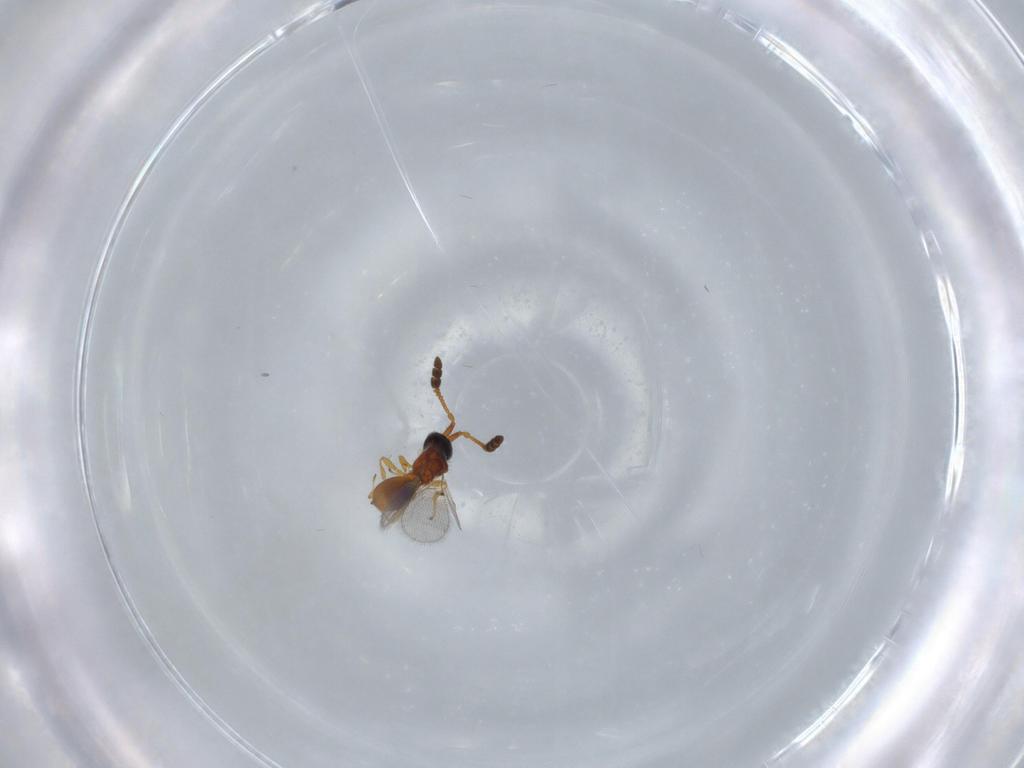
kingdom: Animalia
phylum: Arthropoda
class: Insecta
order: Hymenoptera
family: Diapriidae
